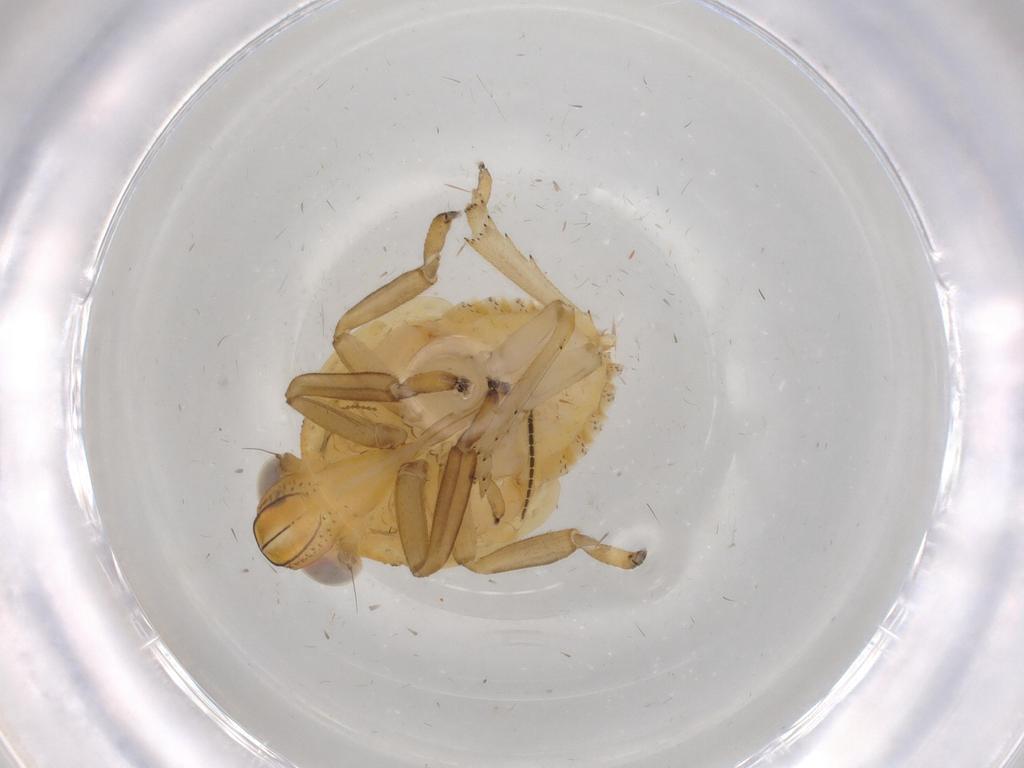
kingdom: Animalia
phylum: Arthropoda
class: Insecta
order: Hemiptera
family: Issidae
